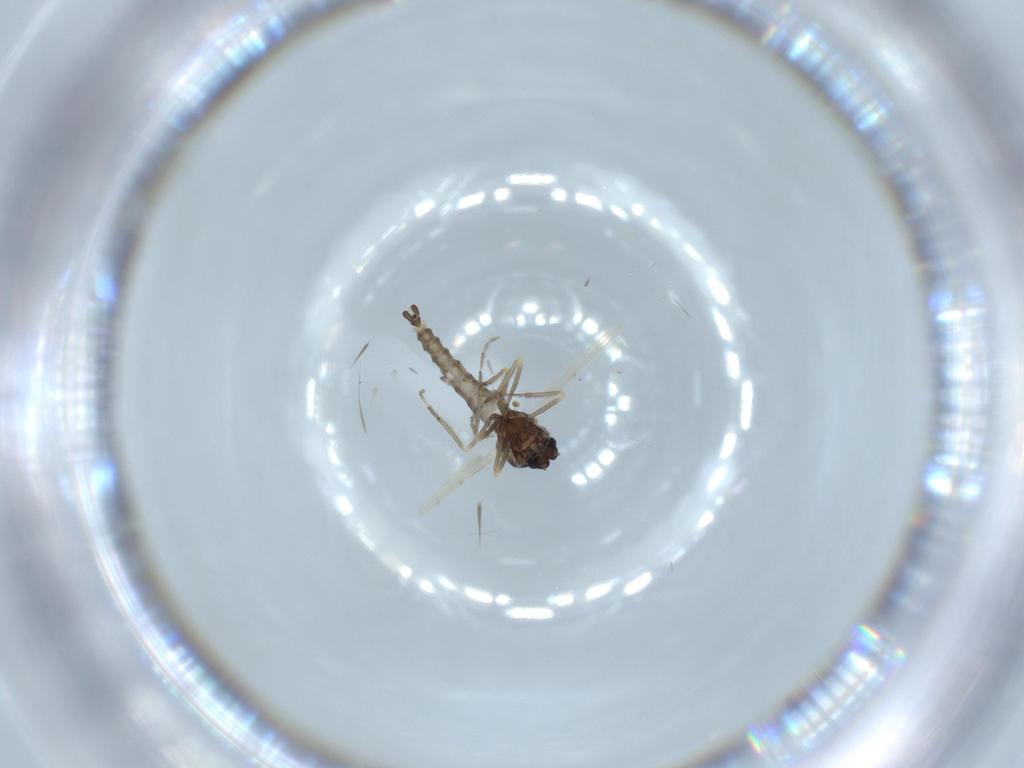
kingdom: Animalia
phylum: Arthropoda
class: Insecta
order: Diptera
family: Ceratopogonidae
